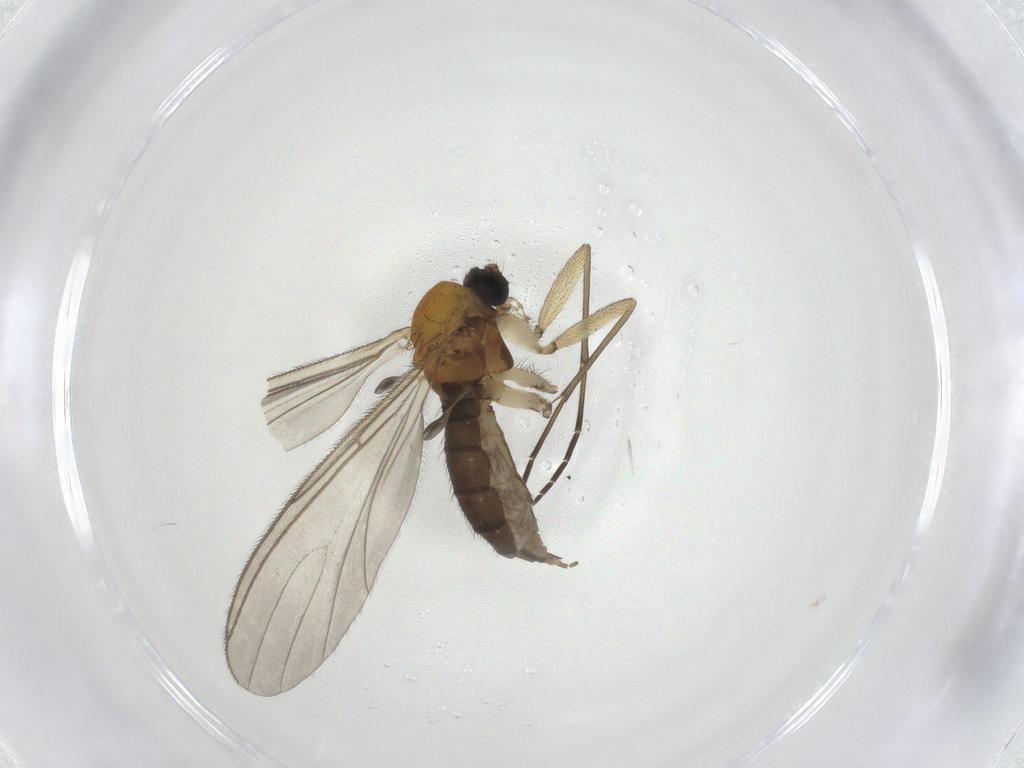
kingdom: Animalia
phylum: Arthropoda
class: Insecta
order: Diptera
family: Sciaridae
